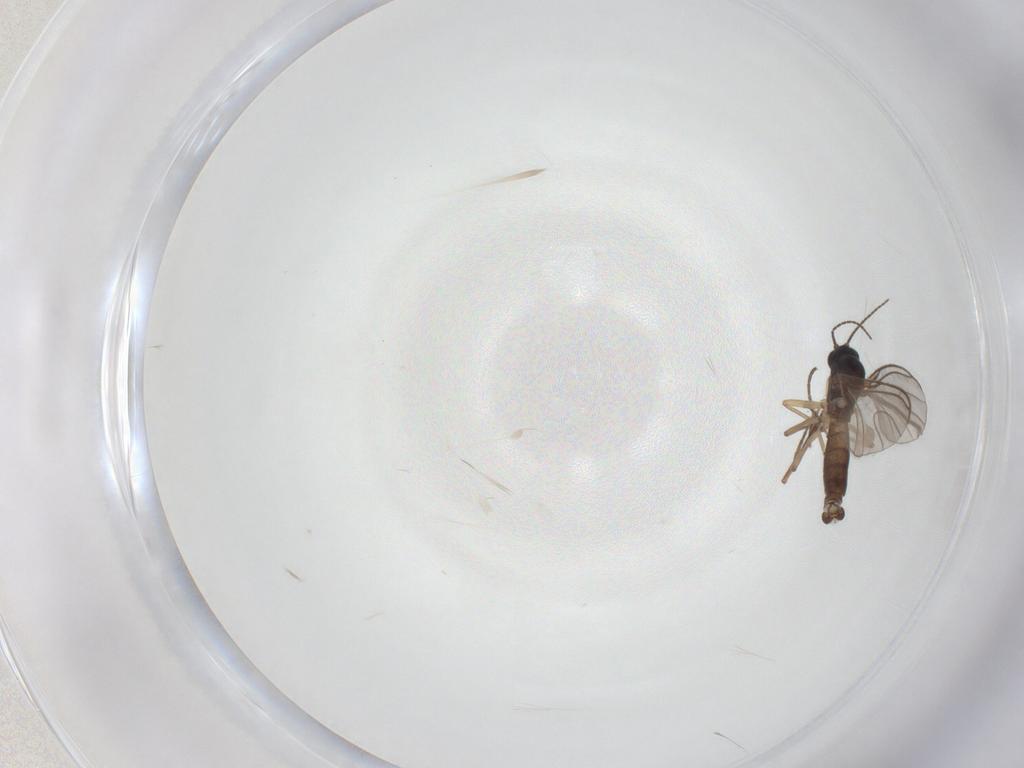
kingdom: Animalia
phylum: Arthropoda
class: Insecta
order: Diptera
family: Chironomidae
